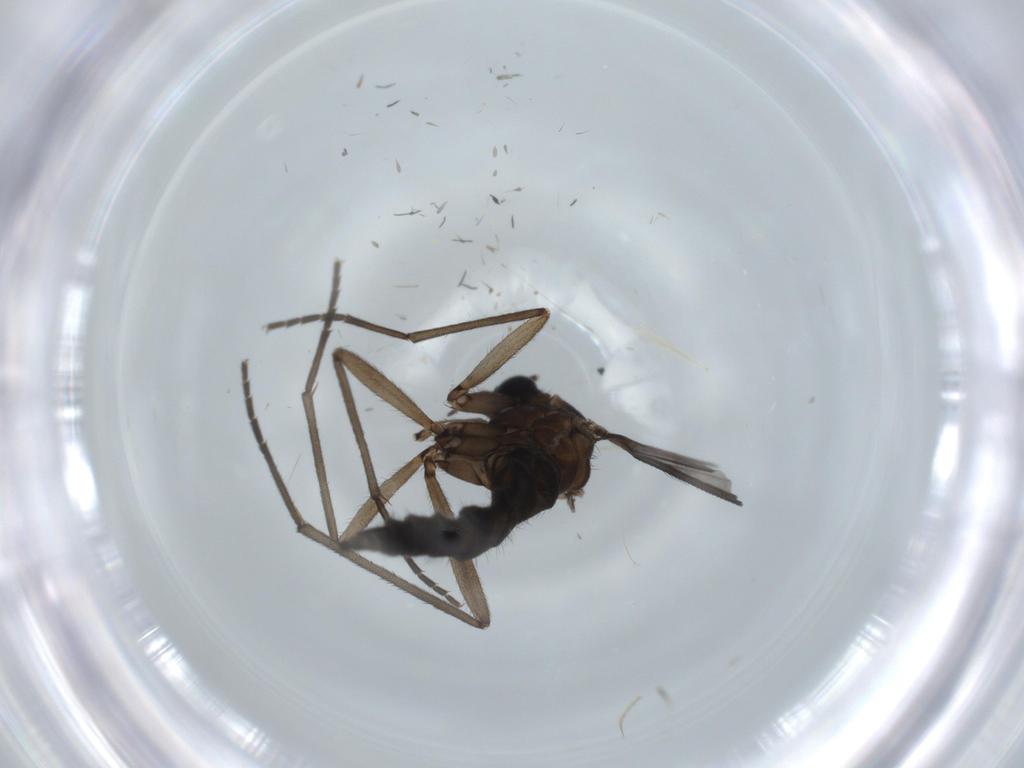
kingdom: Animalia
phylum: Arthropoda
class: Insecta
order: Diptera
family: Sciaridae
